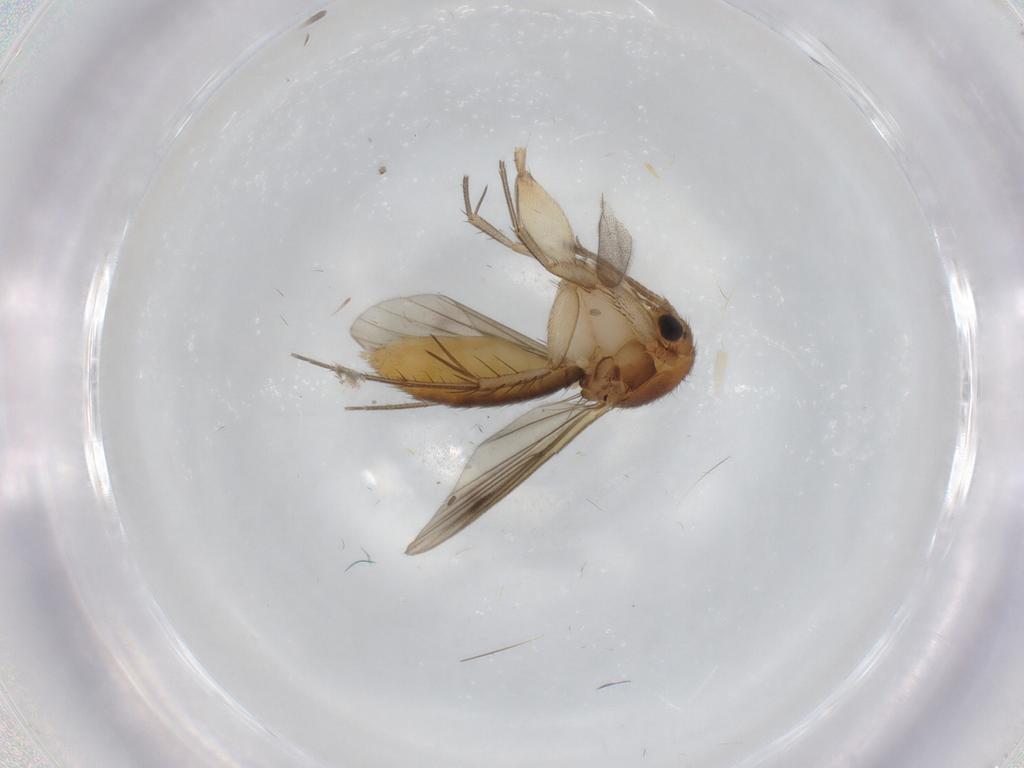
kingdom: Animalia
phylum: Arthropoda
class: Insecta
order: Diptera
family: Mycetophilidae
